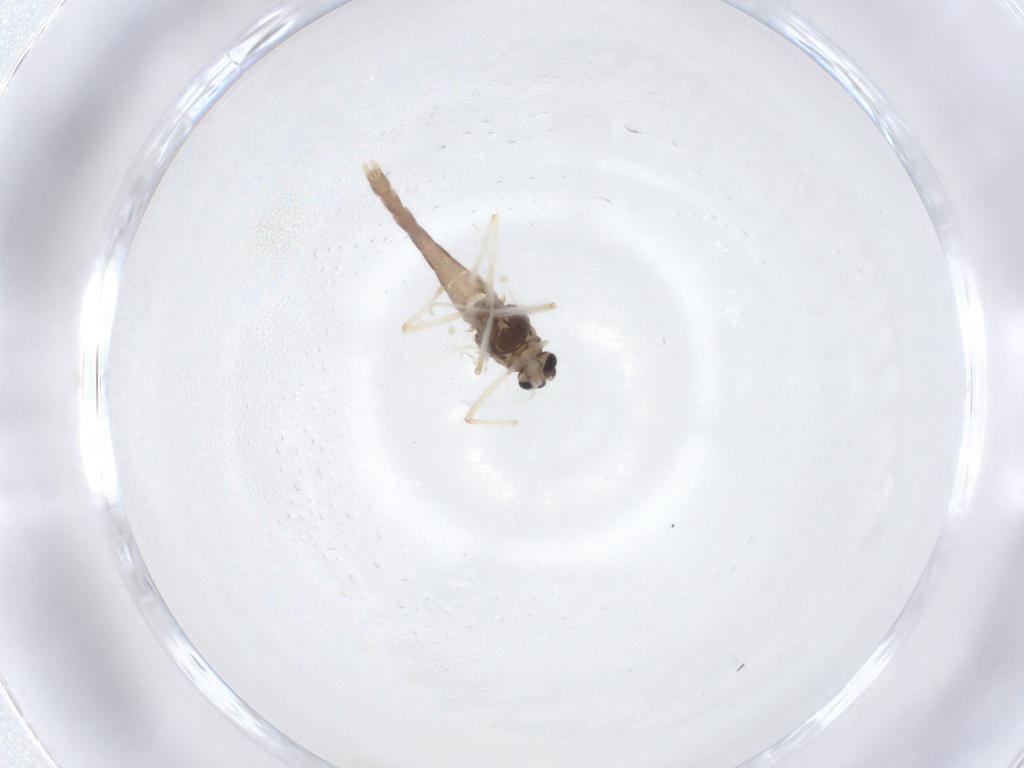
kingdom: Animalia
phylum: Arthropoda
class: Insecta
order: Diptera
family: Chironomidae
